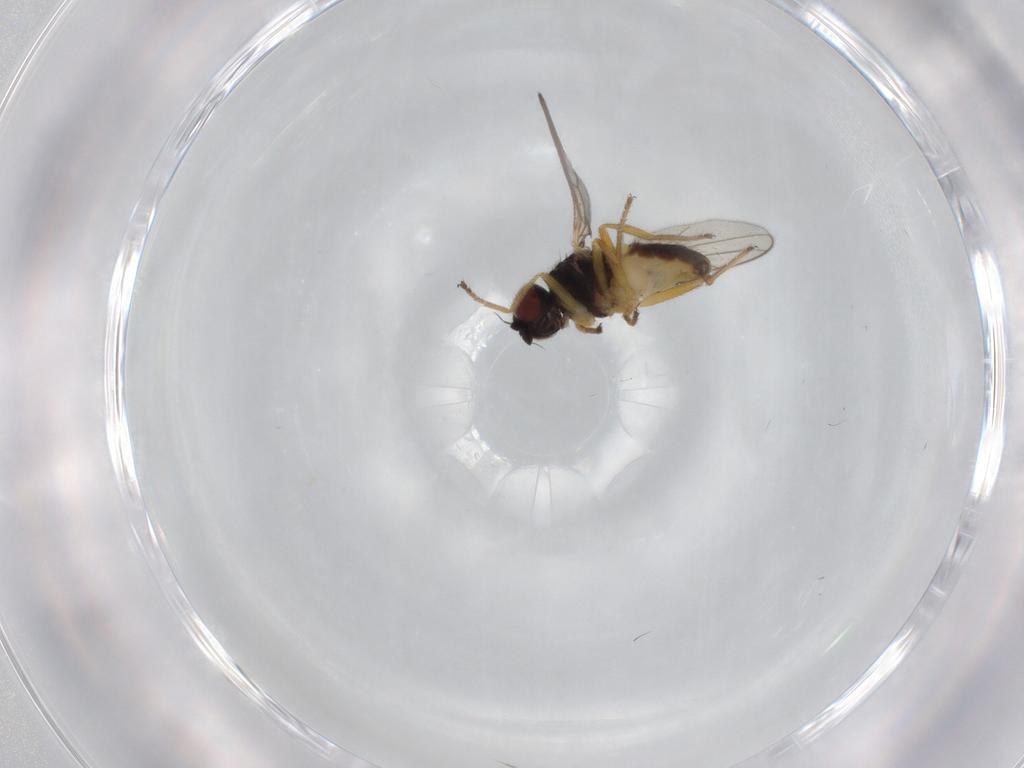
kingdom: Animalia
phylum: Arthropoda
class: Insecta
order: Diptera
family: Chloropidae
